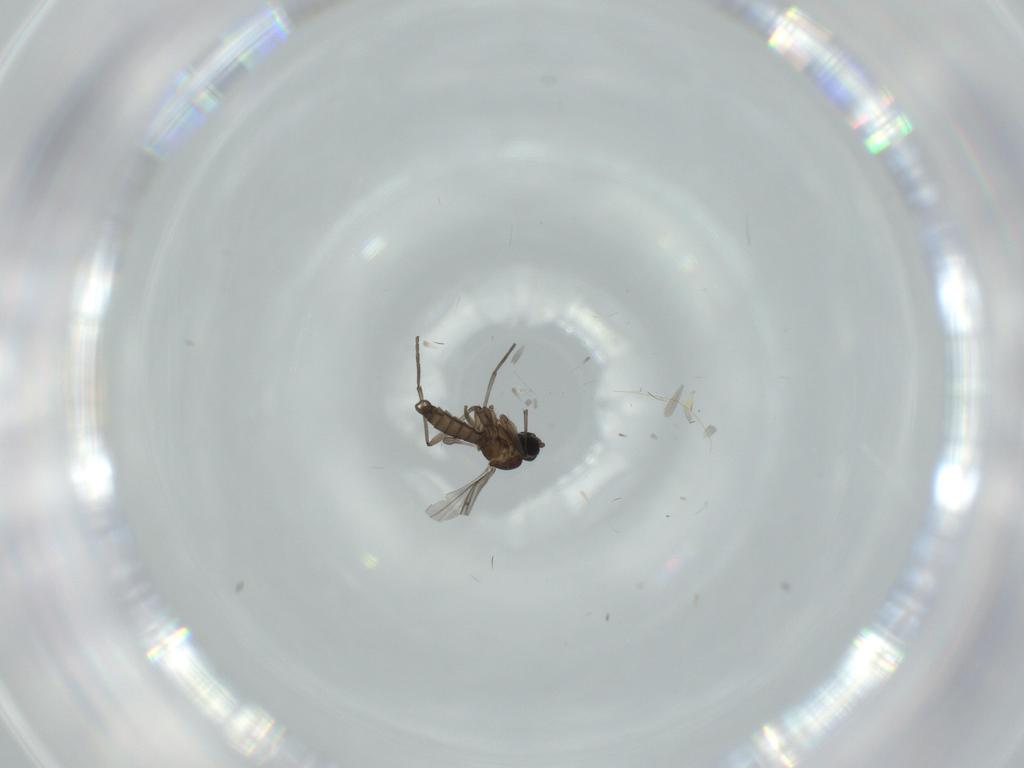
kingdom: Animalia
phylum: Arthropoda
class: Insecta
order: Diptera
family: Sciaridae
